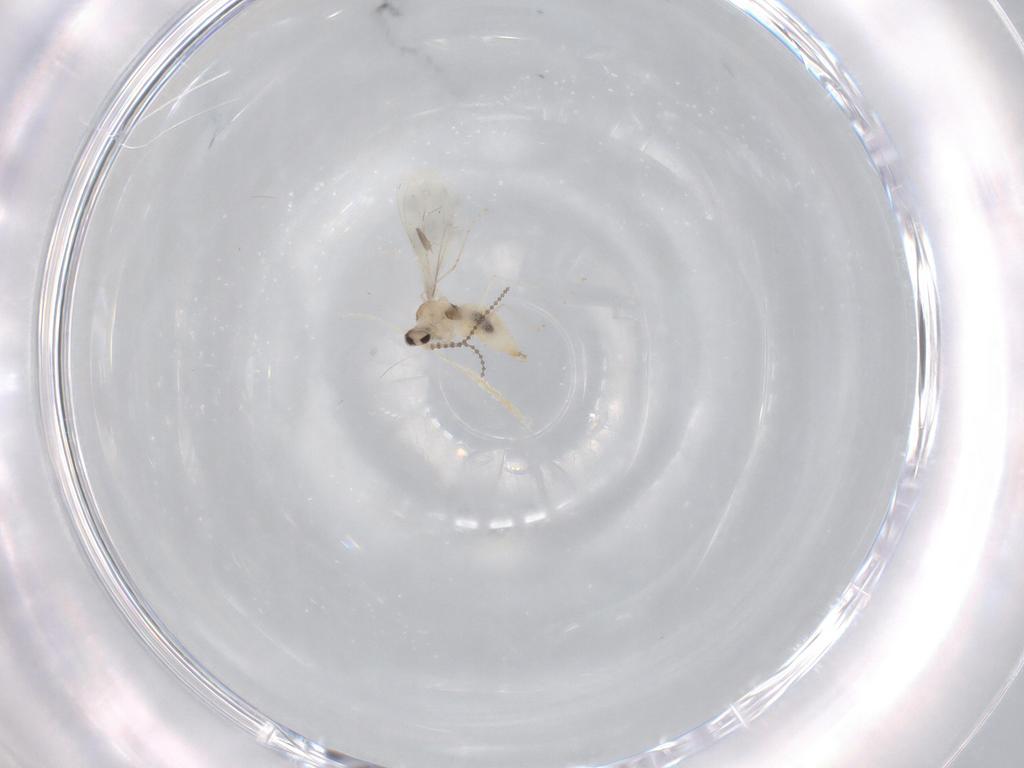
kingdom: Animalia
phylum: Arthropoda
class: Insecta
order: Diptera
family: Cecidomyiidae
